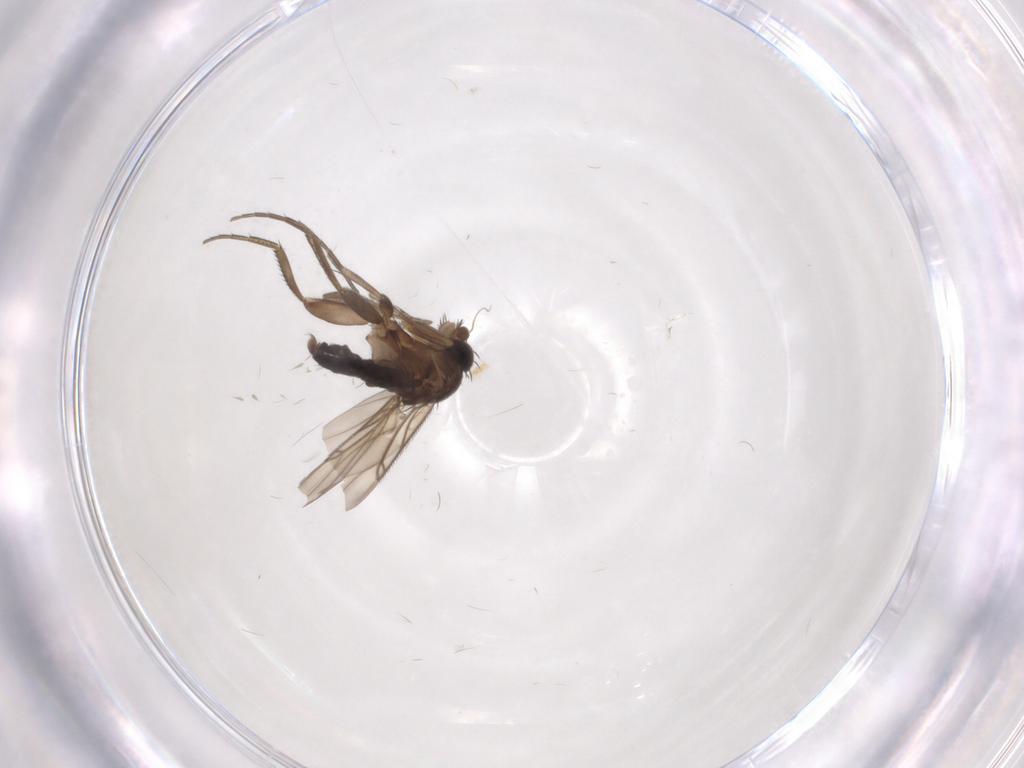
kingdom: Animalia
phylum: Arthropoda
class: Insecta
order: Diptera
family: Phoridae
